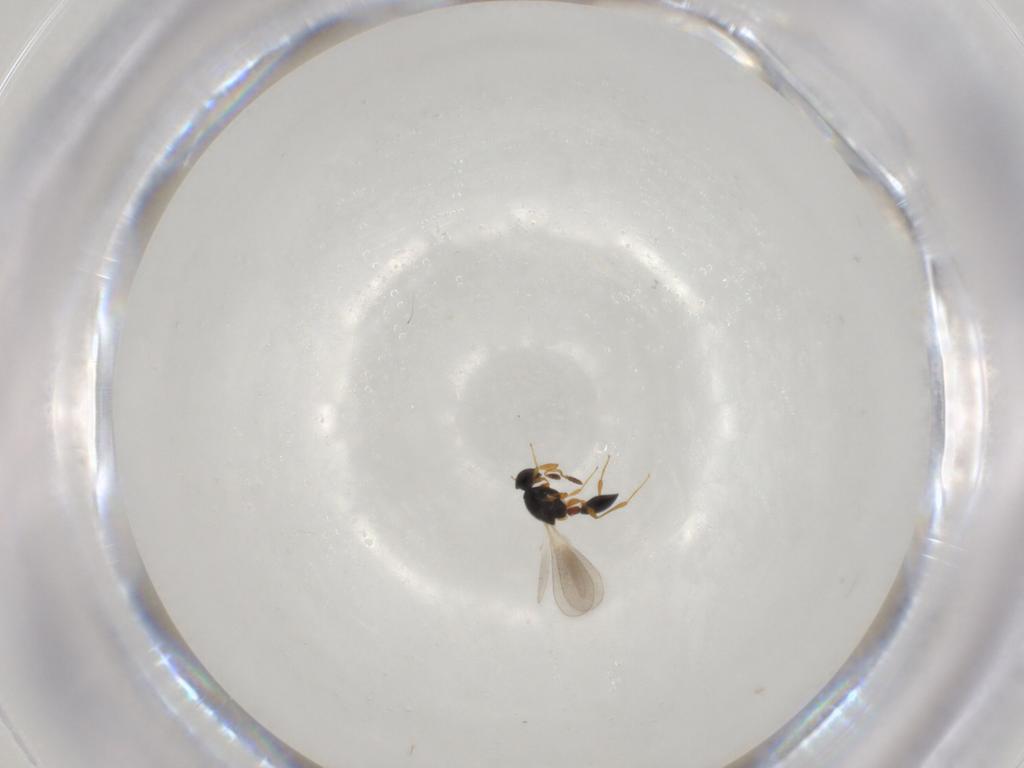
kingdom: Animalia
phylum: Arthropoda
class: Insecta
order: Hymenoptera
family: Platygastridae
